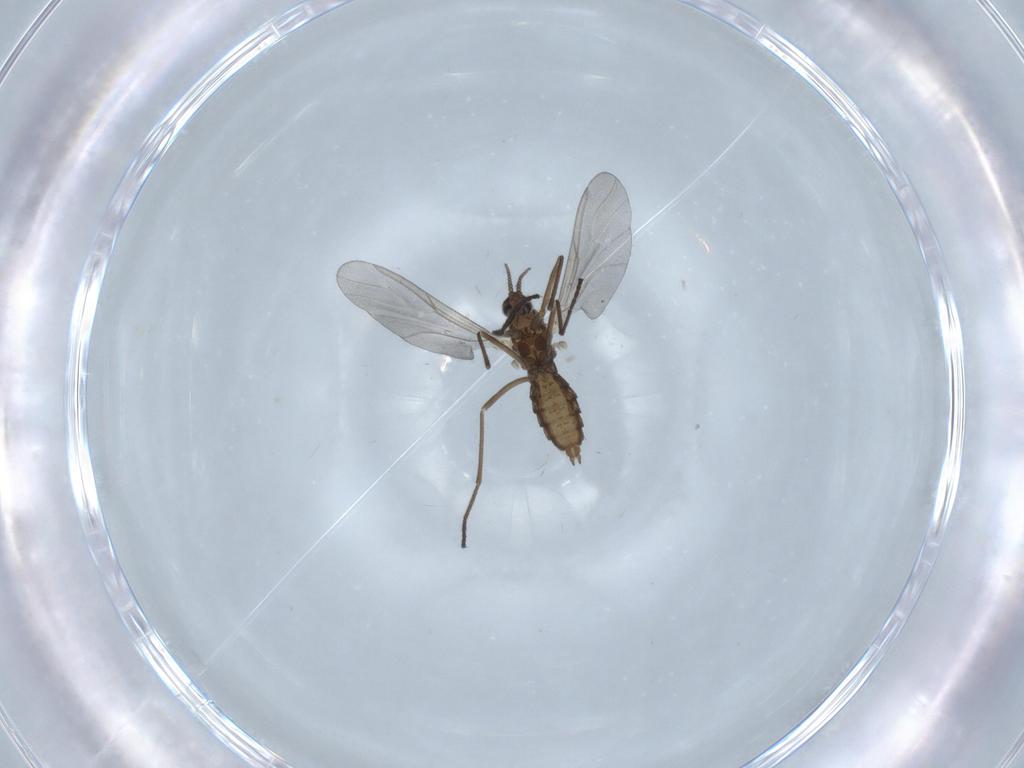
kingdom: Animalia
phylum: Arthropoda
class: Insecta
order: Diptera
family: Cecidomyiidae
